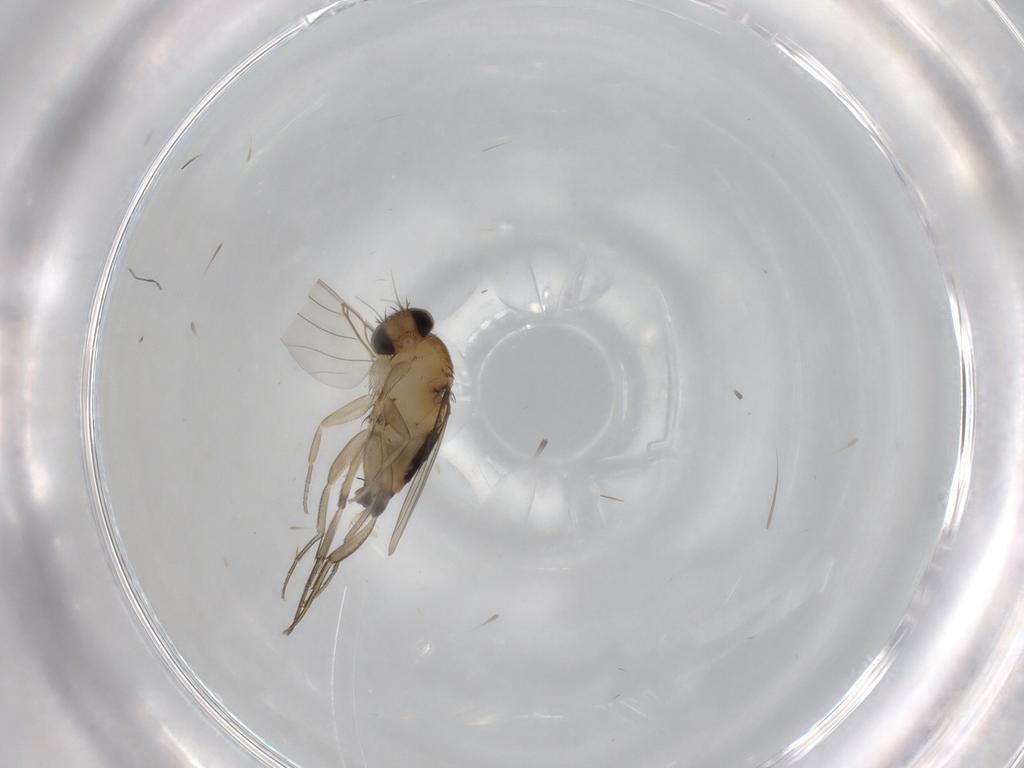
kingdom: Animalia
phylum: Arthropoda
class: Insecta
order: Diptera
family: Phoridae
